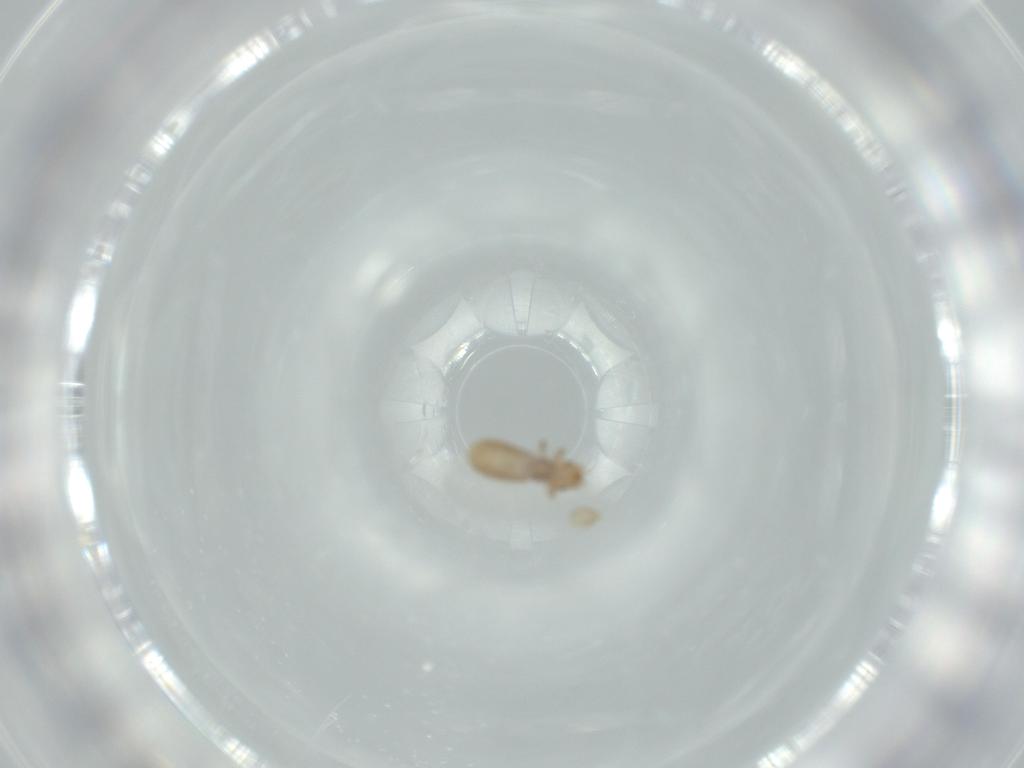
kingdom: Animalia
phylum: Arthropoda
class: Insecta
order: Psocodea
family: Liposcelididae
